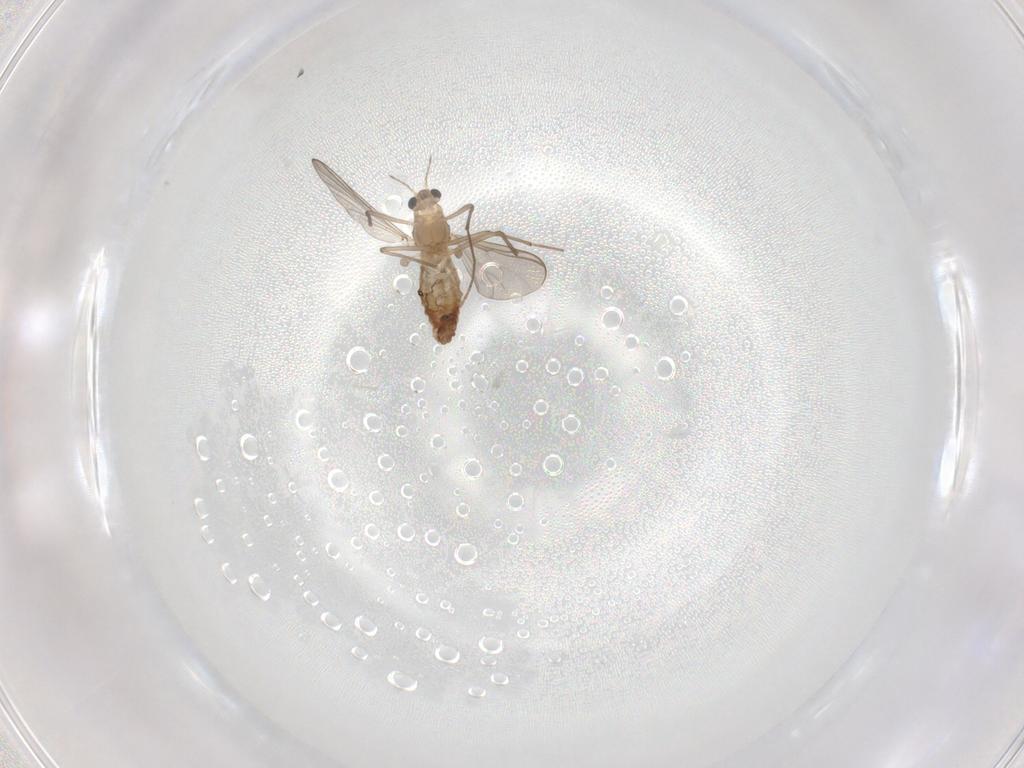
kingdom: Animalia
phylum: Arthropoda
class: Insecta
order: Diptera
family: Chironomidae
